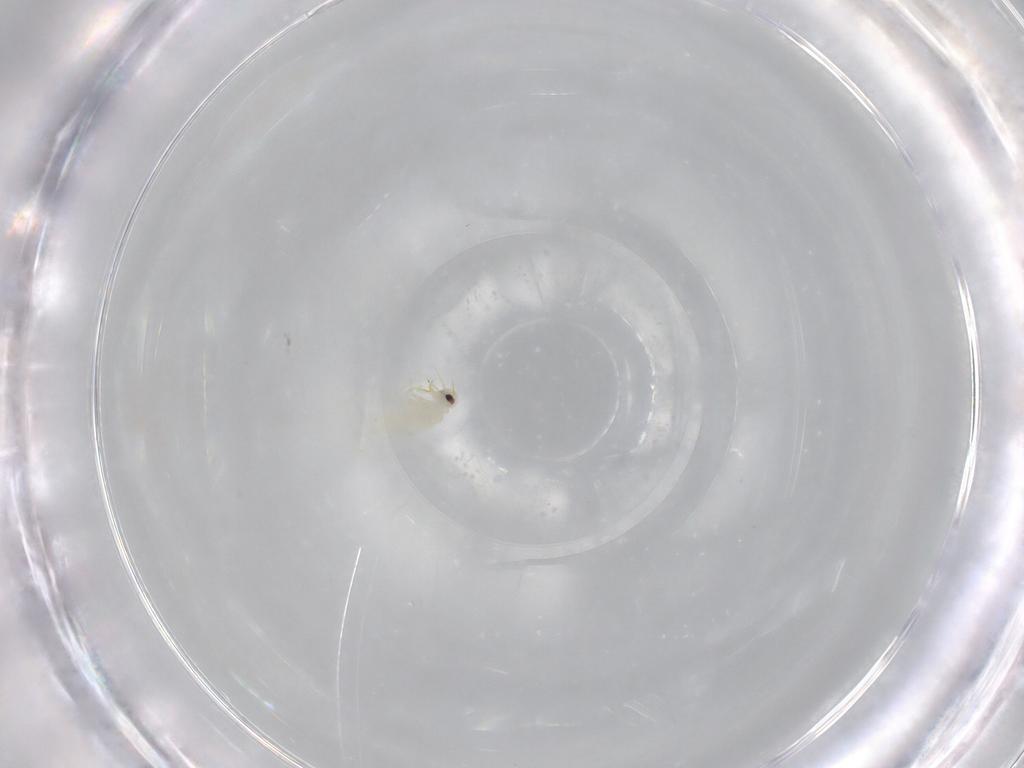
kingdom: Animalia
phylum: Arthropoda
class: Insecta
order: Hemiptera
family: Aleyrodidae
